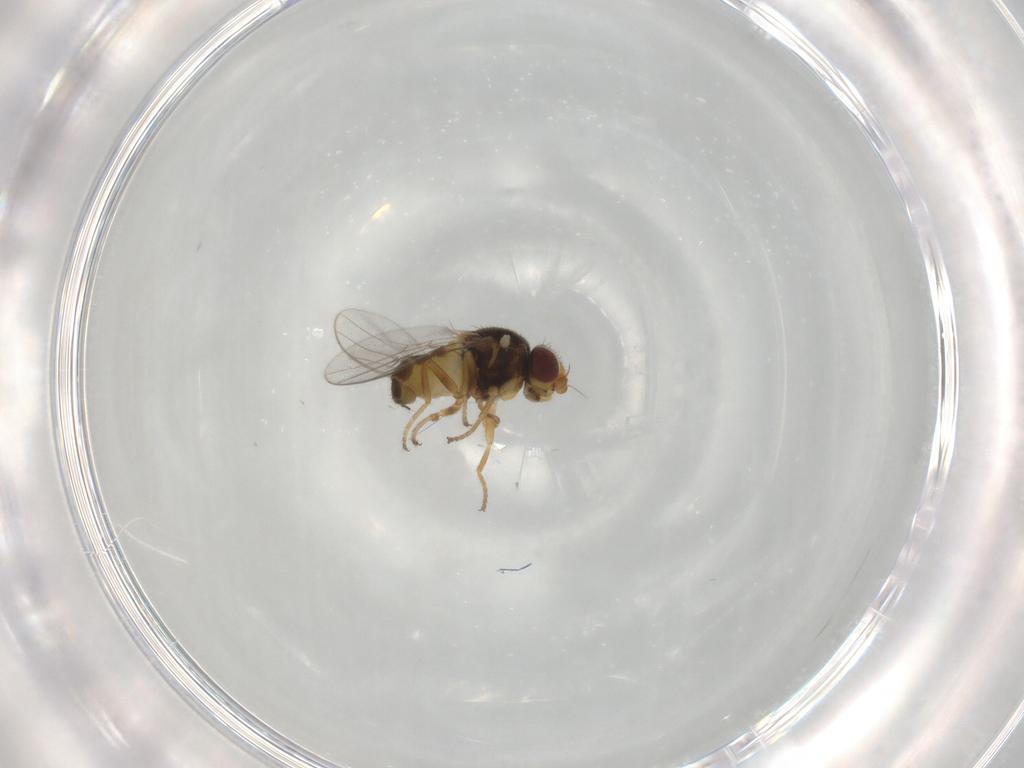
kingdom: Animalia
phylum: Arthropoda
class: Insecta
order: Diptera
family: Chloropidae
